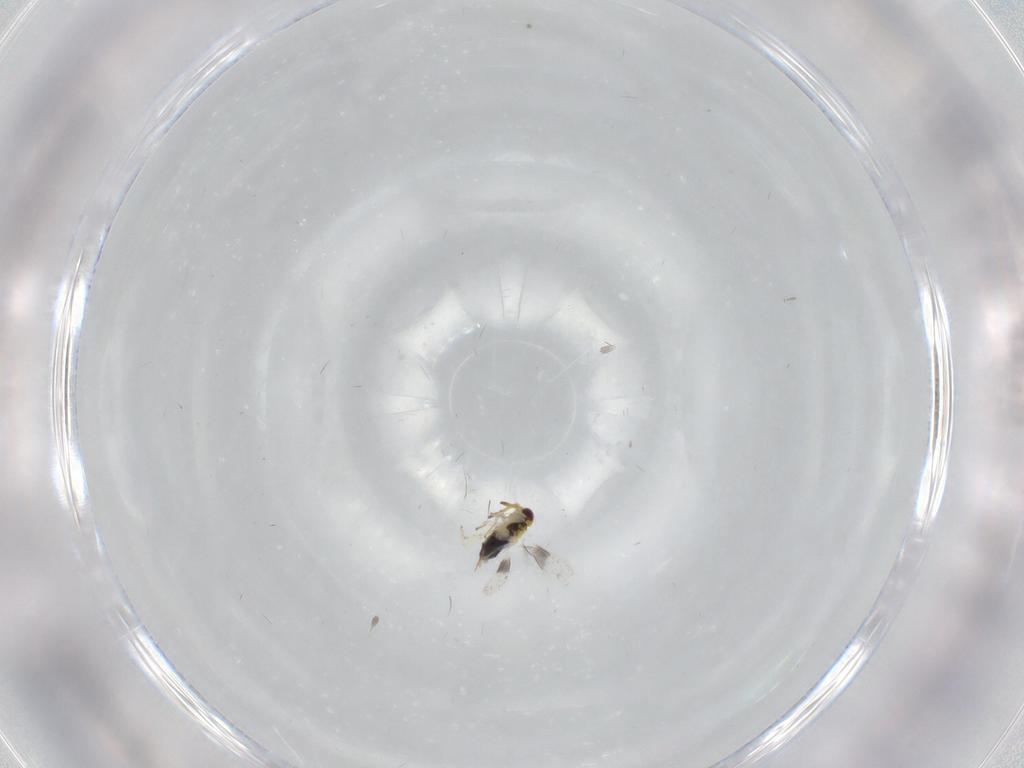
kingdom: Animalia
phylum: Arthropoda
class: Insecta
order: Hymenoptera
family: Aphelinidae
